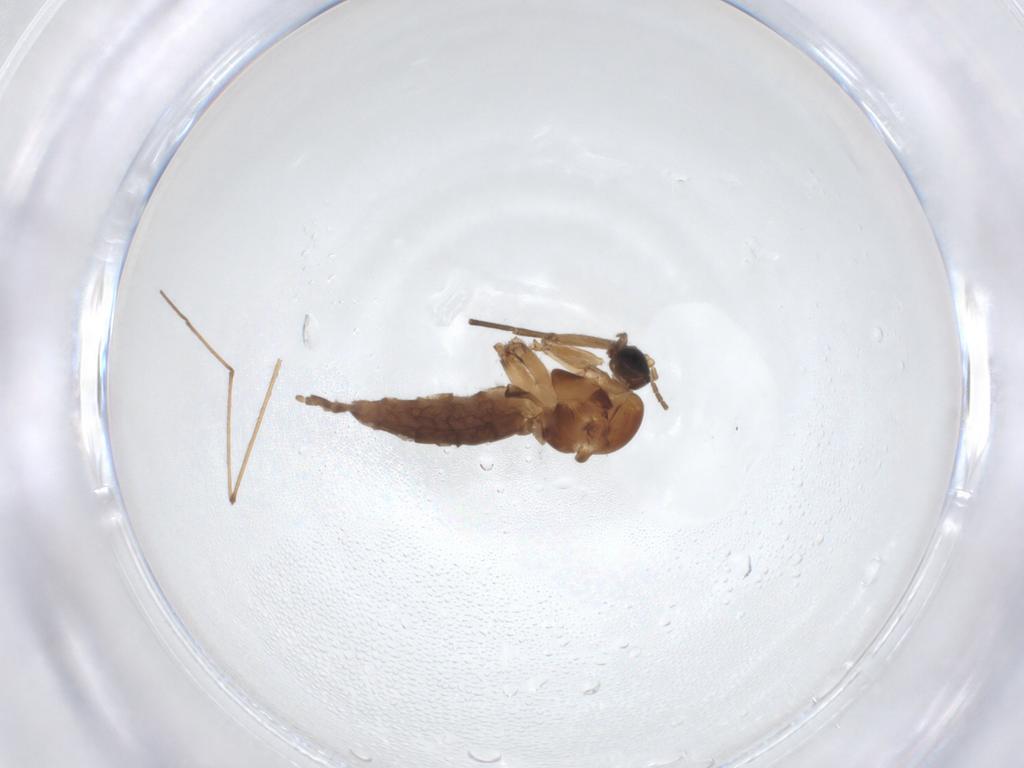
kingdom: Animalia
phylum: Arthropoda
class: Insecta
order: Diptera
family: Sciaridae
